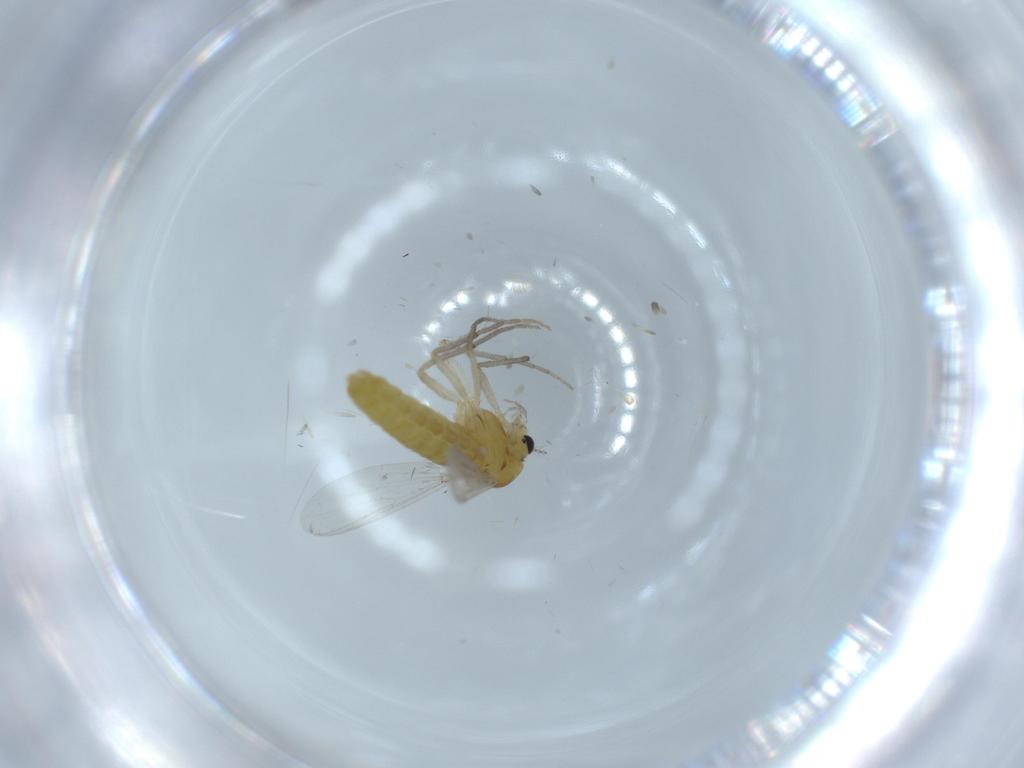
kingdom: Animalia
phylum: Arthropoda
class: Insecta
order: Diptera
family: Chironomidae
